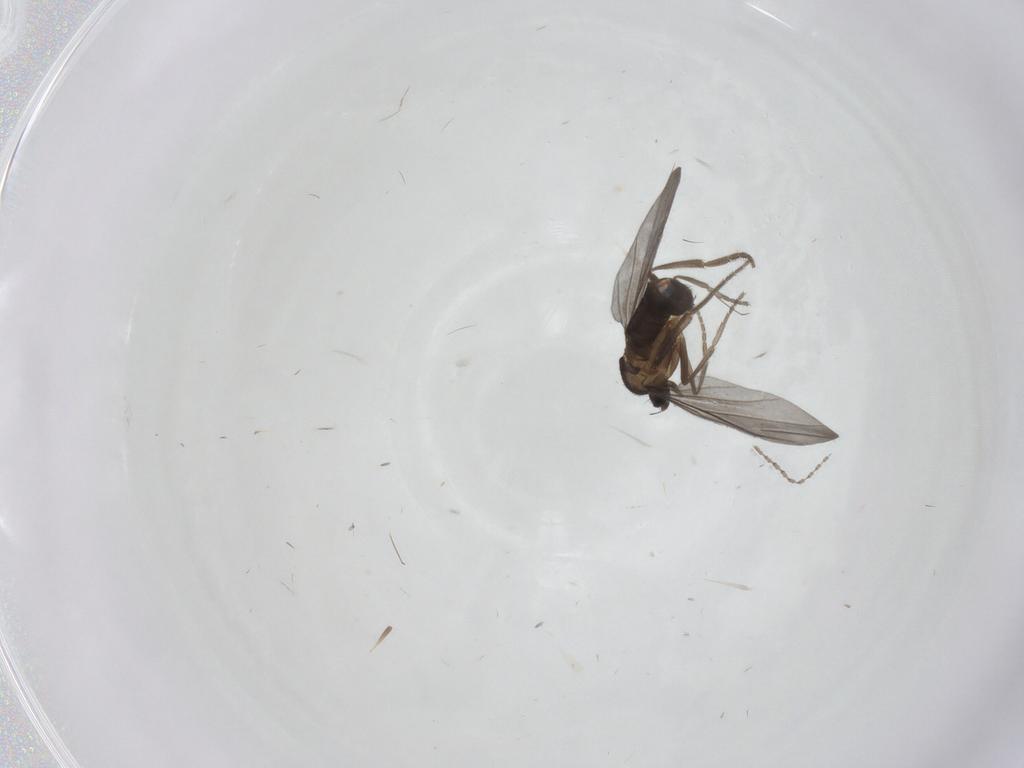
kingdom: Animalia
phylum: Arthropoda
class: Insecta
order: Diptera
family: Phoridae
